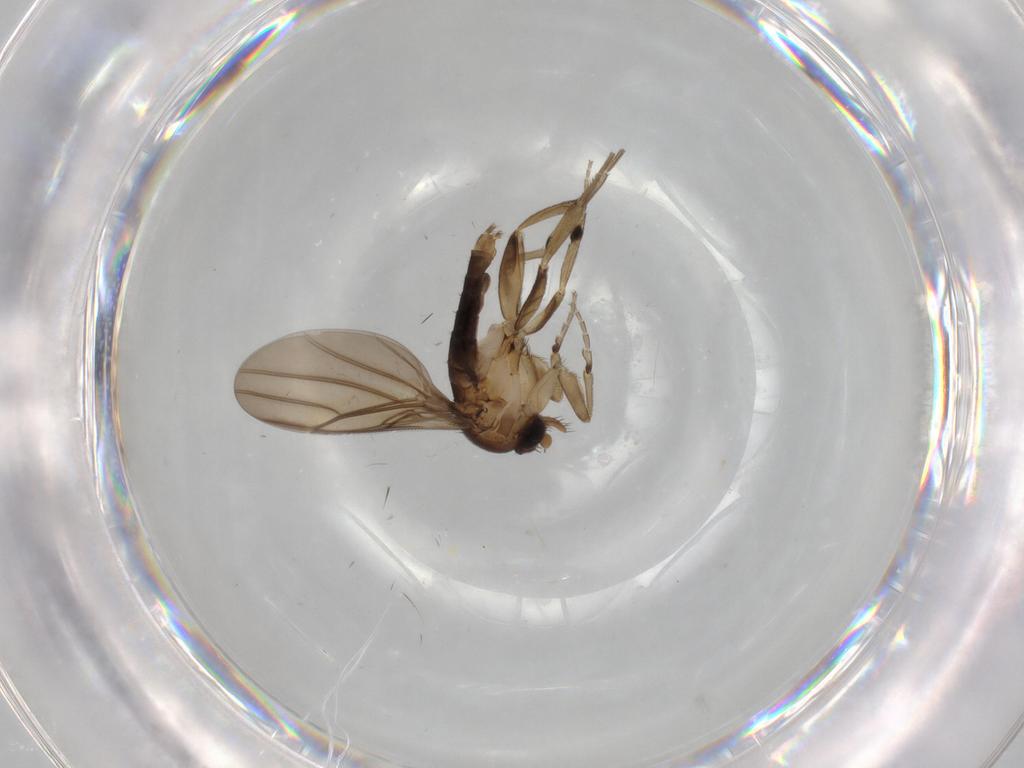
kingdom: Animalia
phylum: Arthropoda
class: Insecta
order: Diptera
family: Phoridae
